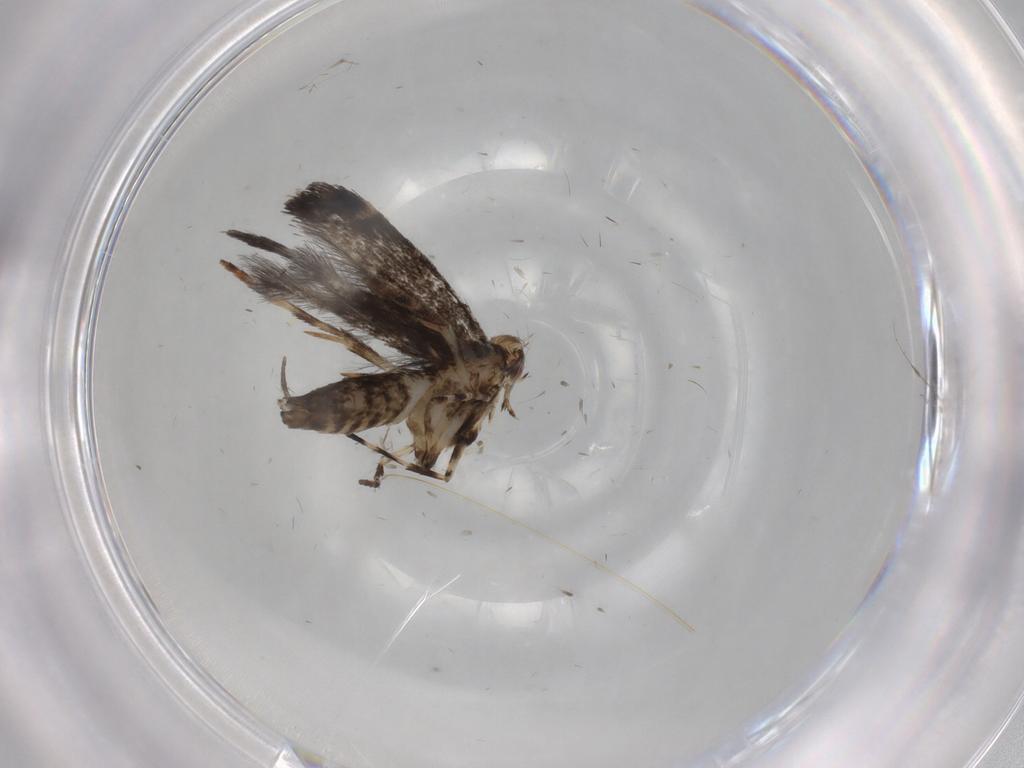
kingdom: Animalia
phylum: Arthropoda
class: Insecta
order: Lepidoptera
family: Gracillariidae
